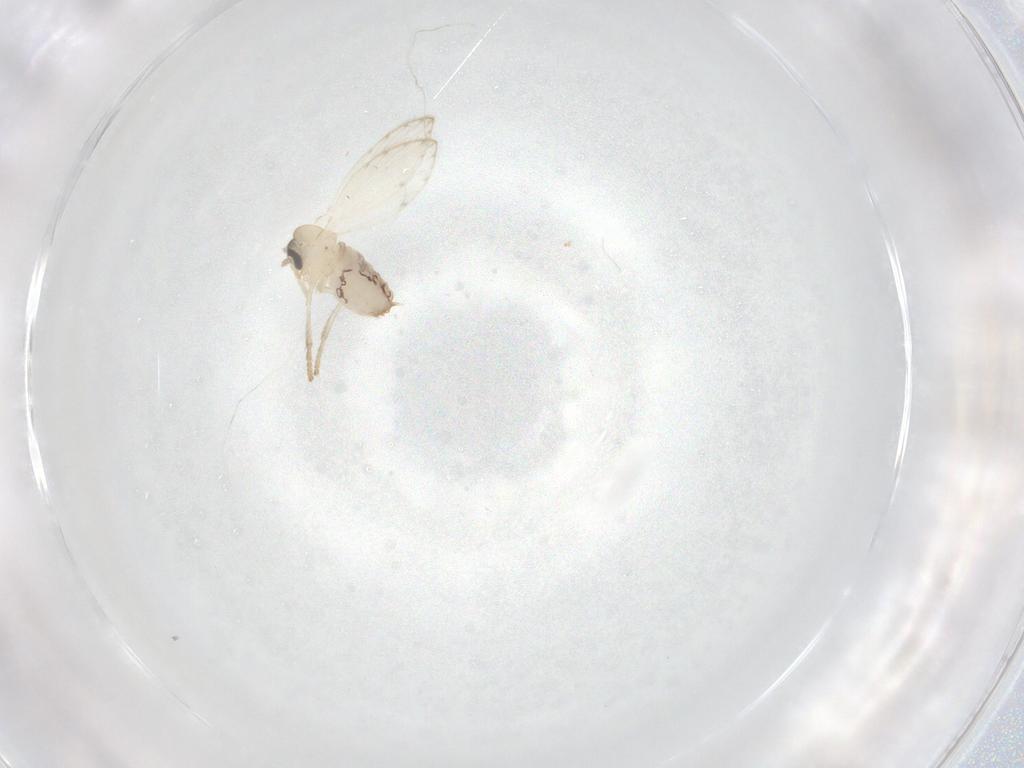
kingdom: Animalia
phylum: Arthropoda
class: Insecta
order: Diptera
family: Psychodidae
